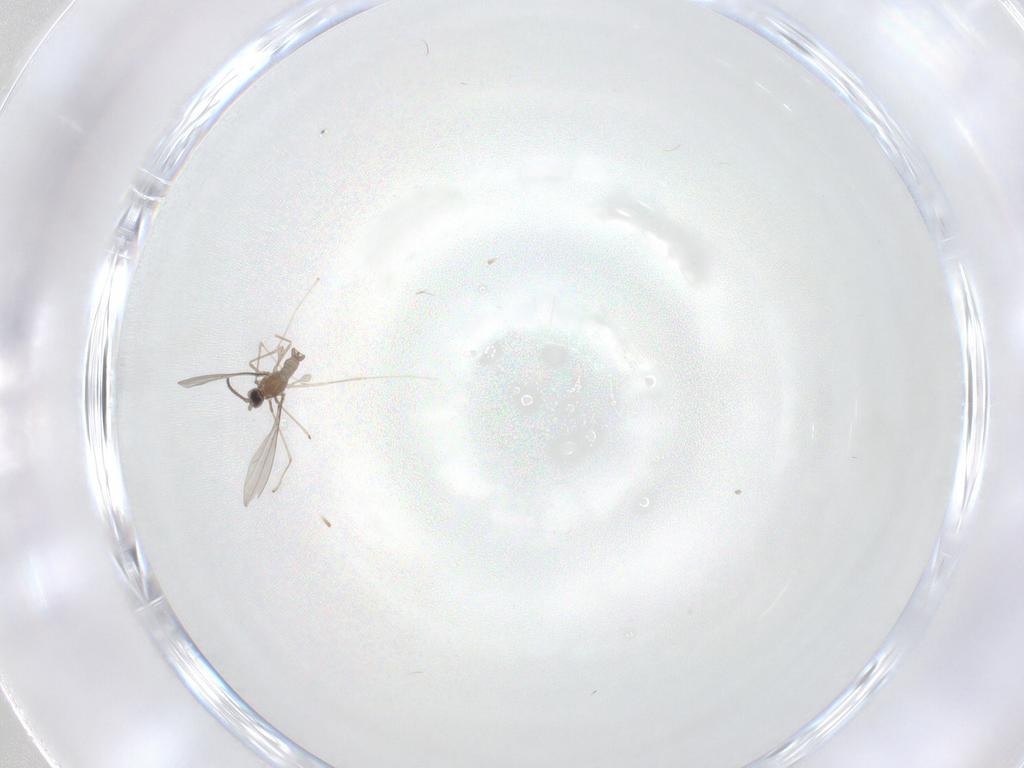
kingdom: Animalia
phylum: Arthropoda
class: Insecta
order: Diptera
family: Cecidomyiidae
